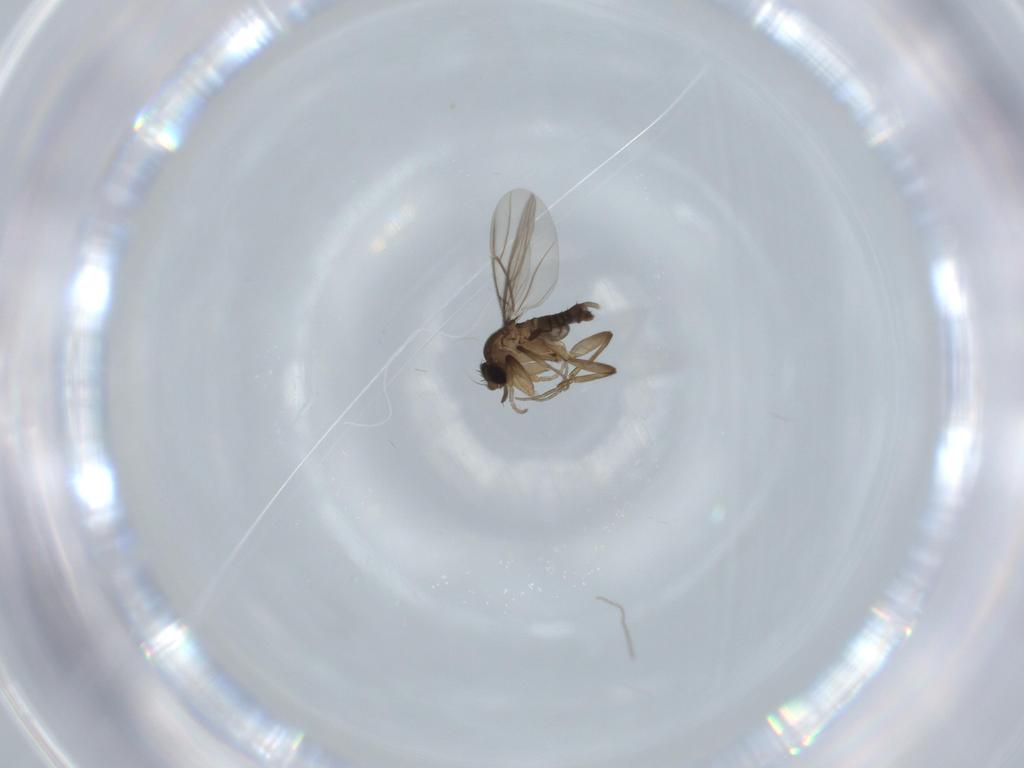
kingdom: Animalia
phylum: Arthropoda
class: Insecta
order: Diptera
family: Phoridae
